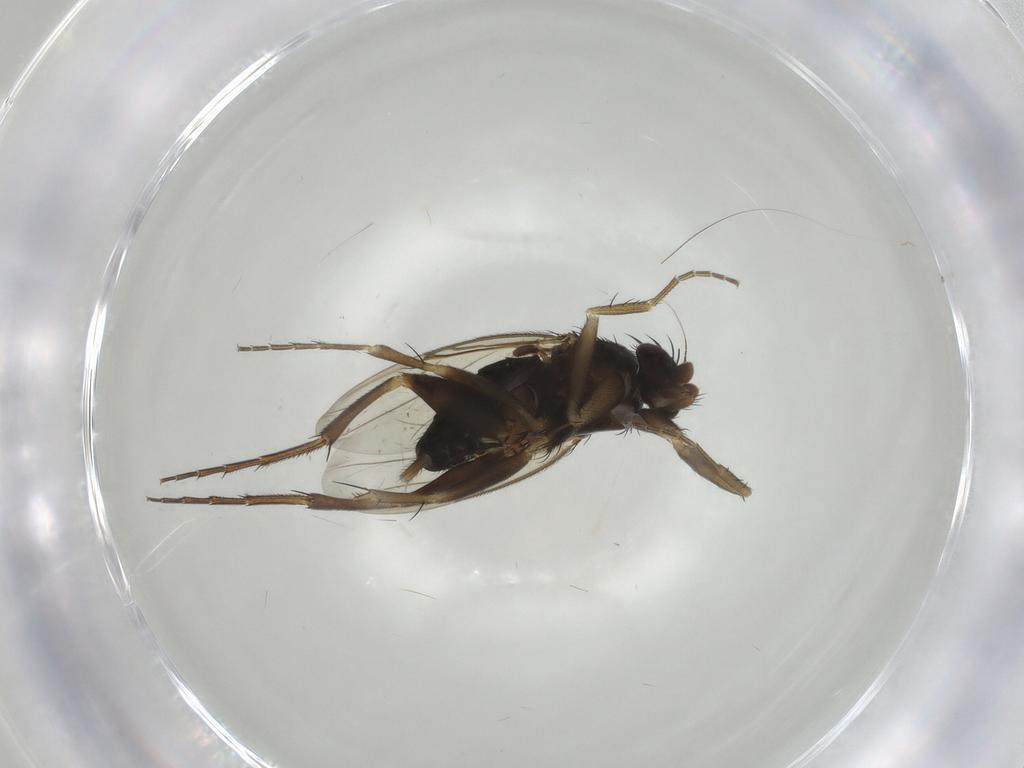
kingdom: Animalia
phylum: Arthropoda
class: Insecta
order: Diptera
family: Phoridae
